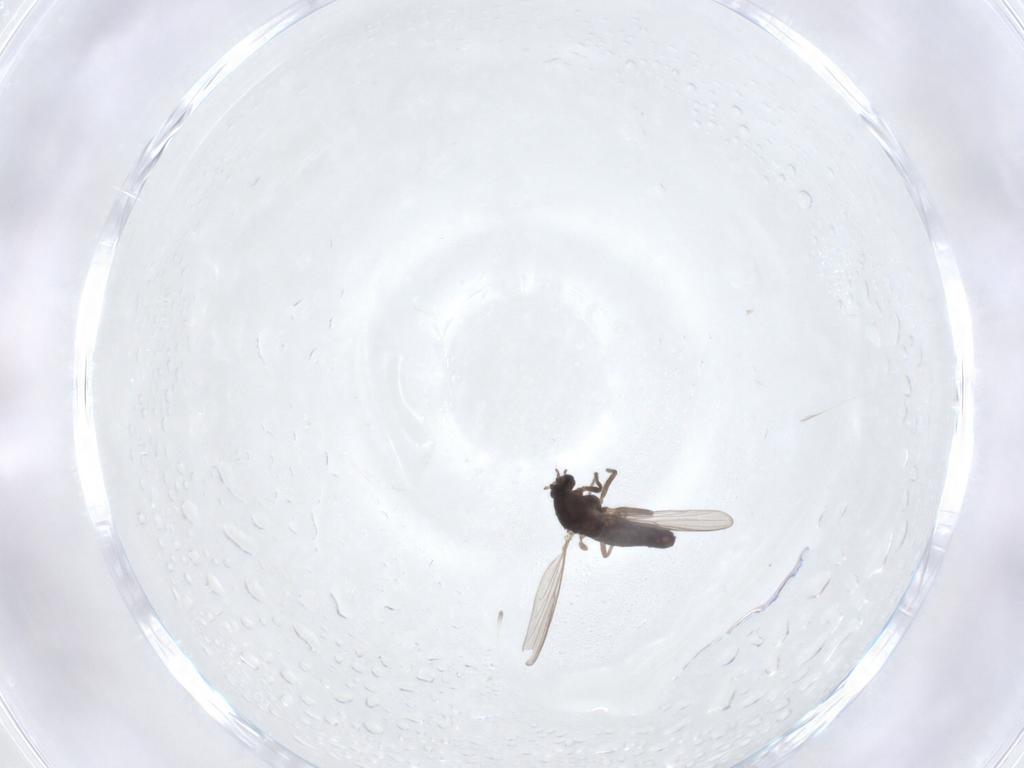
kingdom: Animalia
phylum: Arthropoda
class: Insecta
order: Diptera
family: Chironomidae
